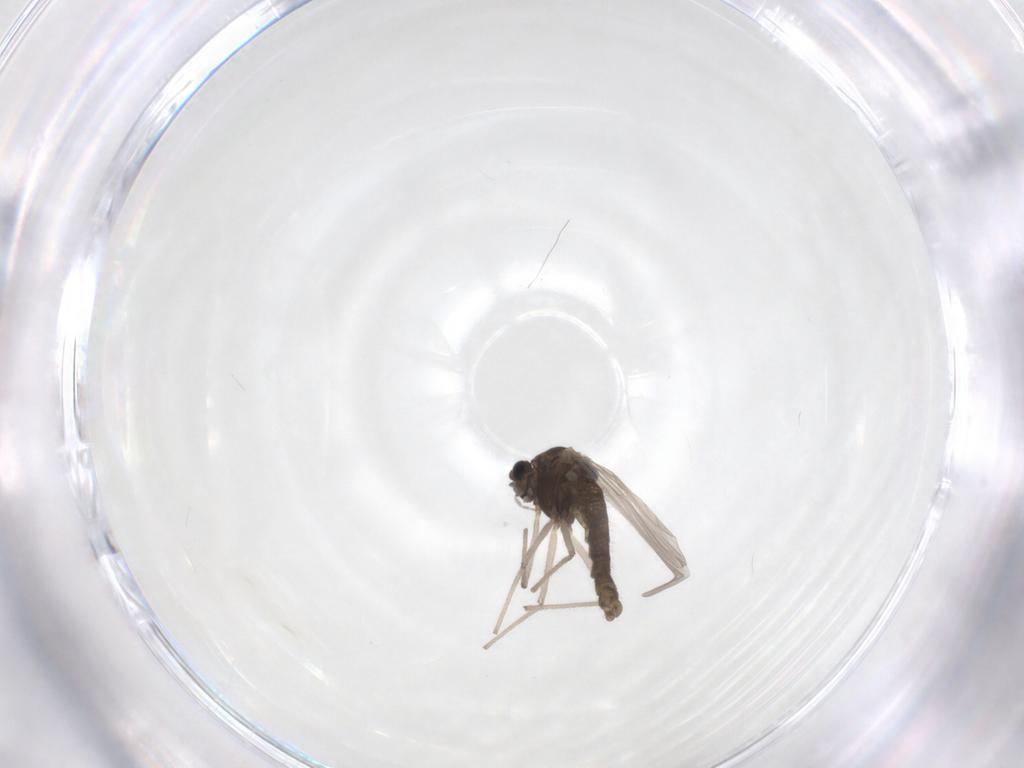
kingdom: Animalia
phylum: Arthropoda
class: Insecta
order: Diptera
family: Chironomidae
